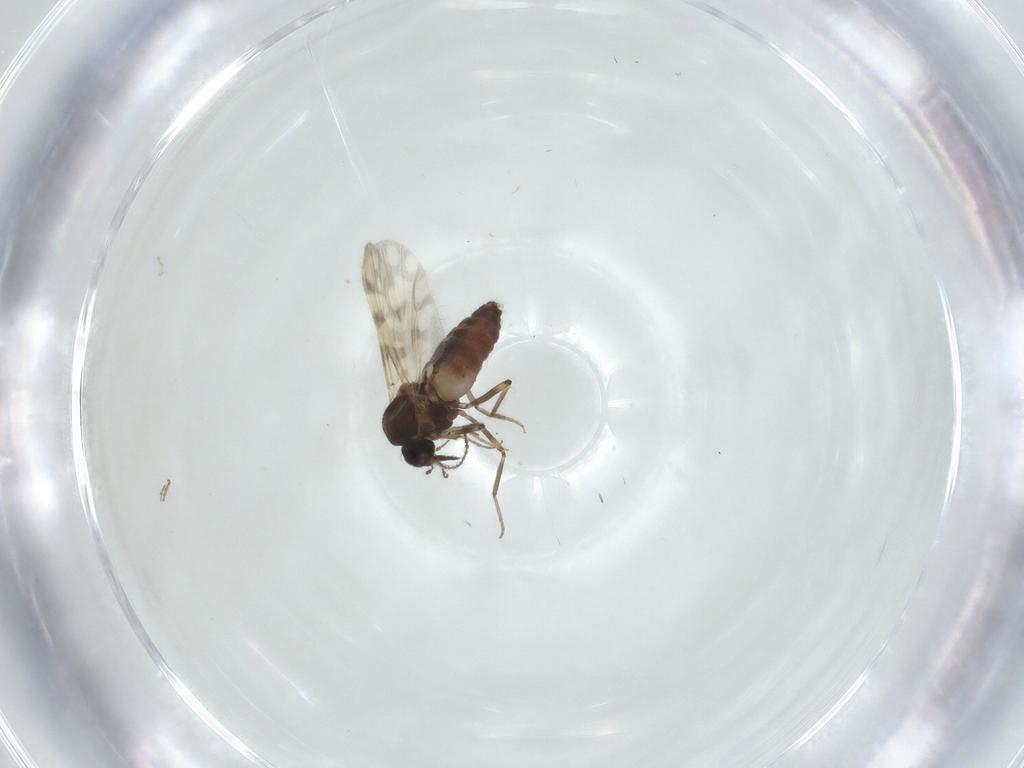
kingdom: Animalia
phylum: Arthropoda
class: Insecta
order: Diptera
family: Ceratopogonidae
